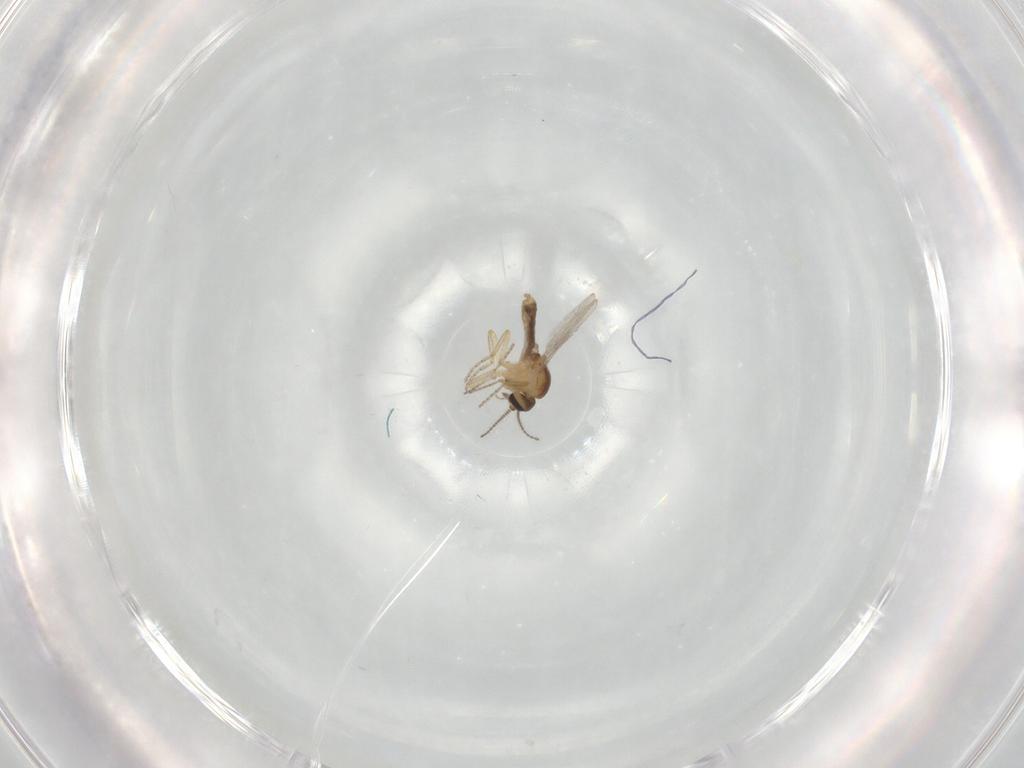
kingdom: Animalia
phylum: Arthropoda
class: Insecta
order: Diptera
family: Ceratopogonidae
